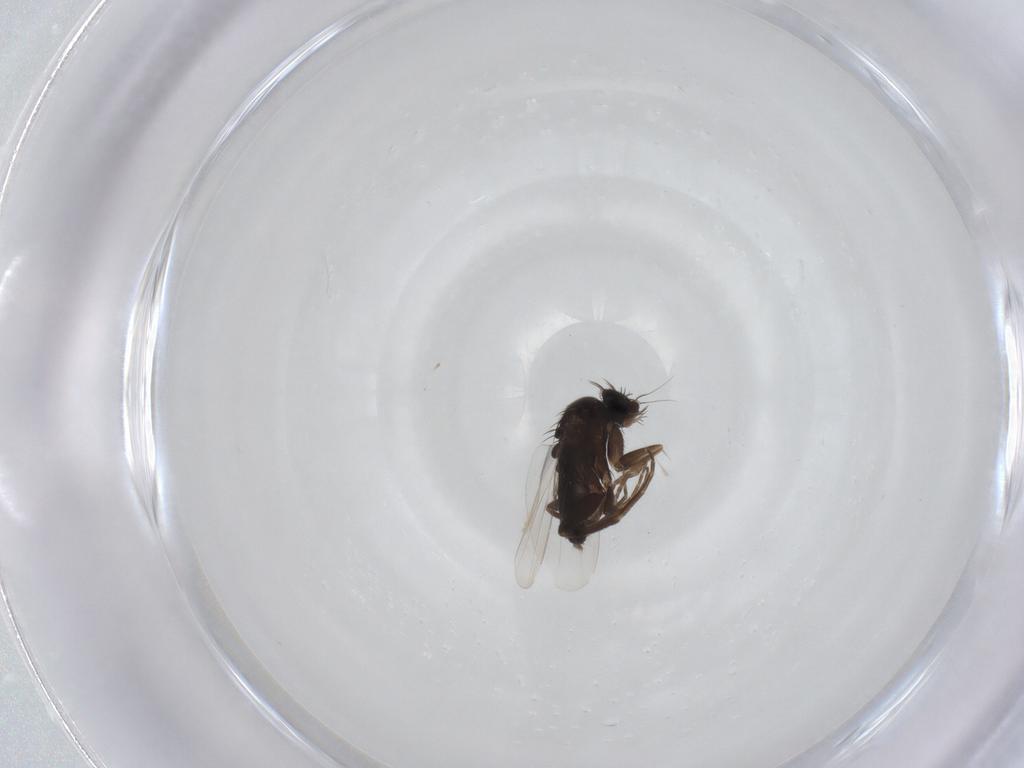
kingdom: Animalia
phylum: Arthropoda
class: Insecta
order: Diptera
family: Phoridae
